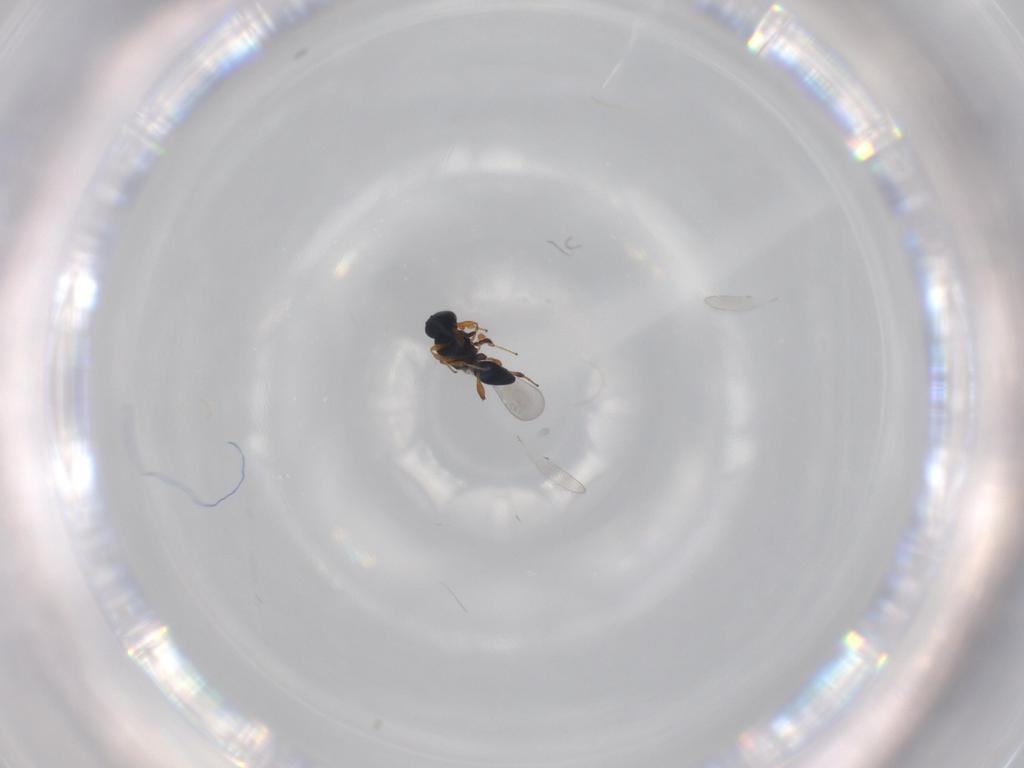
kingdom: Animalia
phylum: Arthropoda
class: Insecta
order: Hymenoptera
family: Platygastridae
